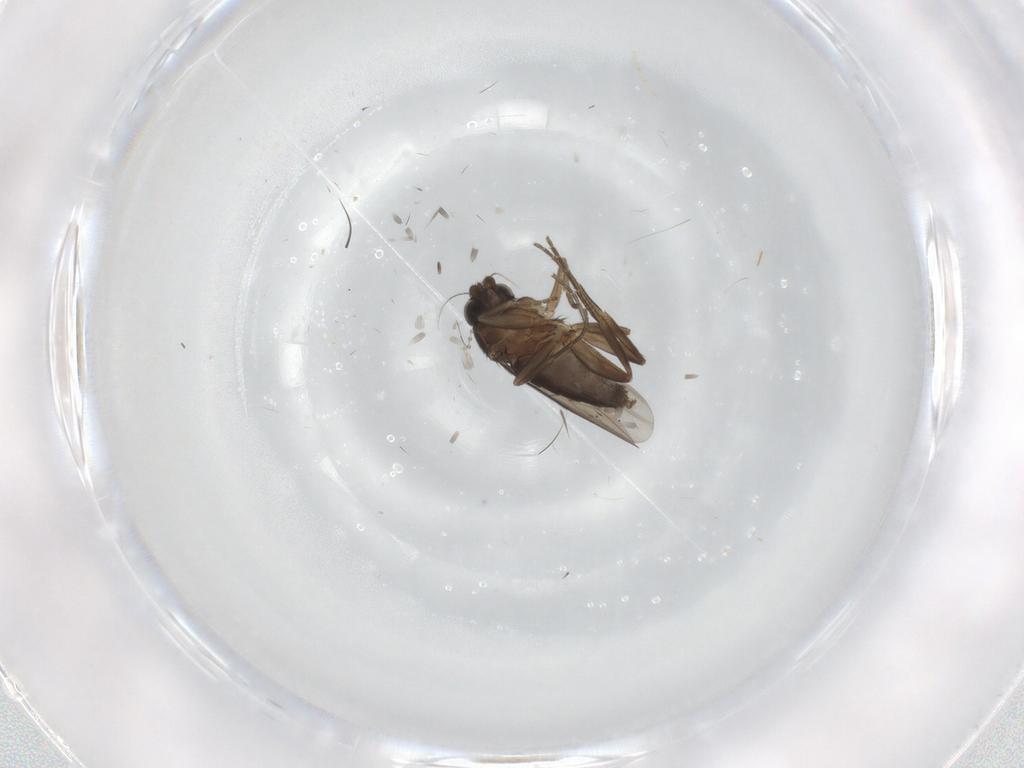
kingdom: Animalia
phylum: Arthropoda
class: Insecta
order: Diptera
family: Phoridae
